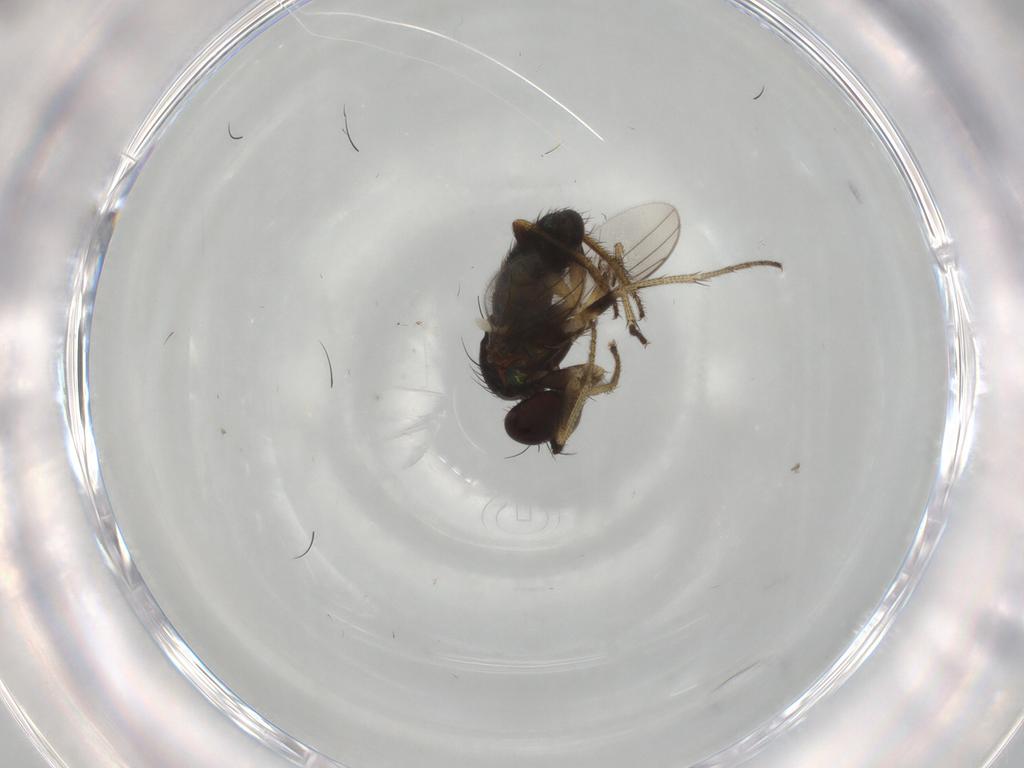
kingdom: Animalia
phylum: Arthropoda
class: Insecta
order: Diptera
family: Dolichopodidae
